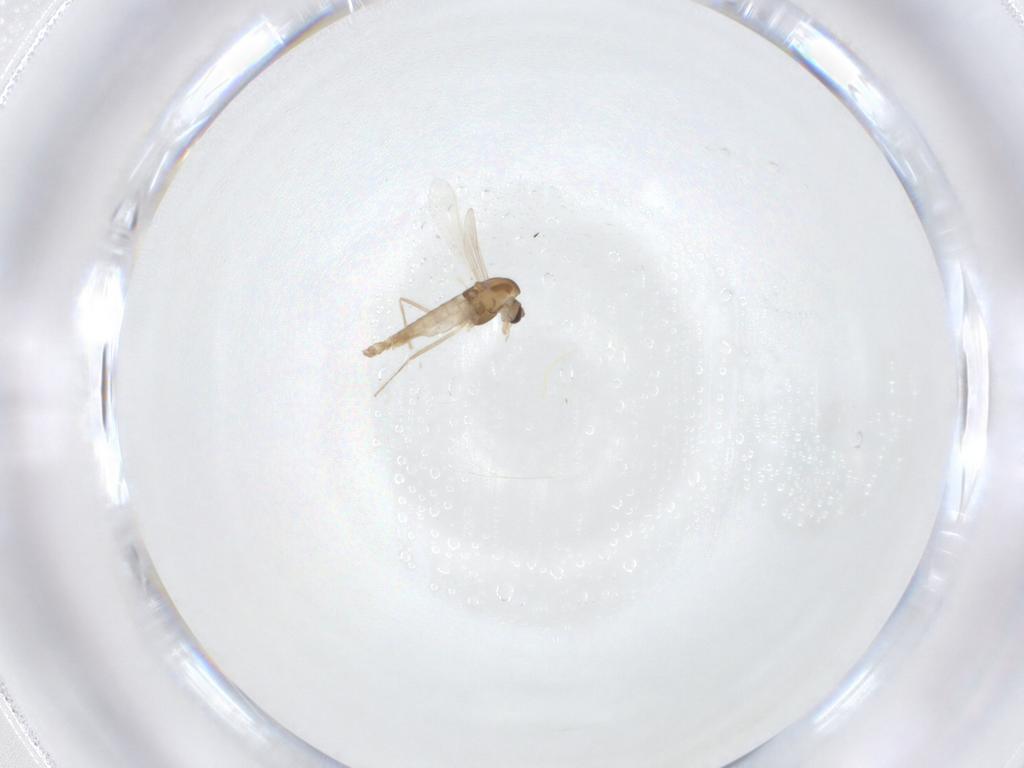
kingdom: Animalia
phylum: Arthropoda
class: Insecta
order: Diptera
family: Chironomidae
